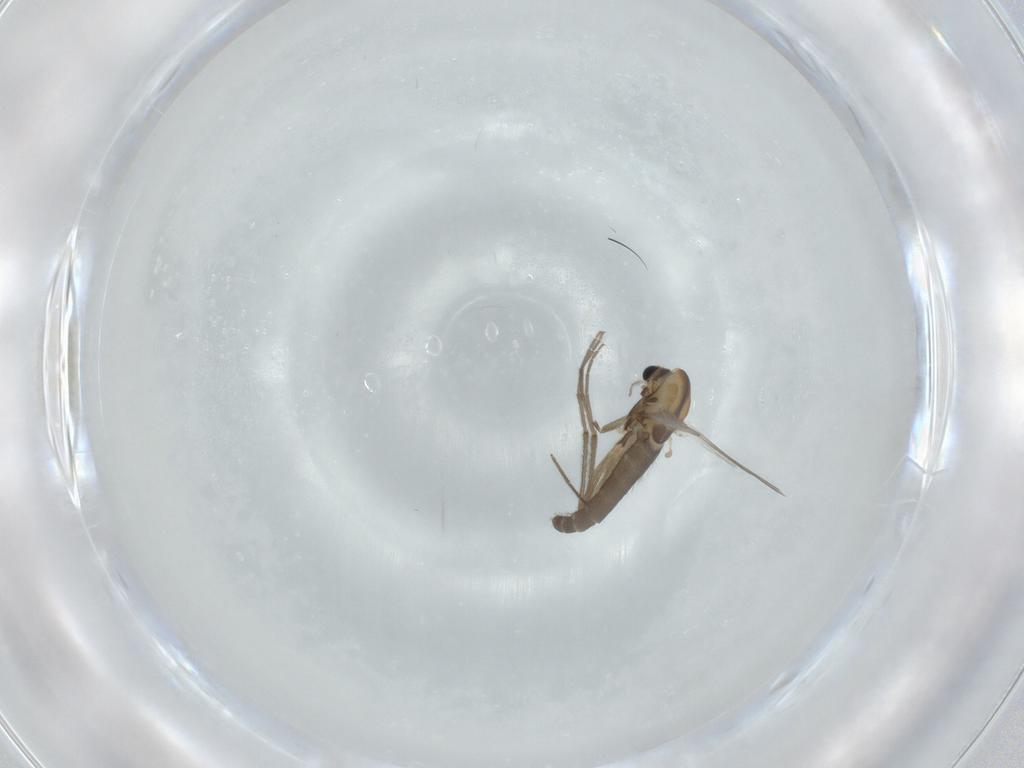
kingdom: Animalia
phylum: Arthropoda
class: Insecta
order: Diptera
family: Chironomidae
